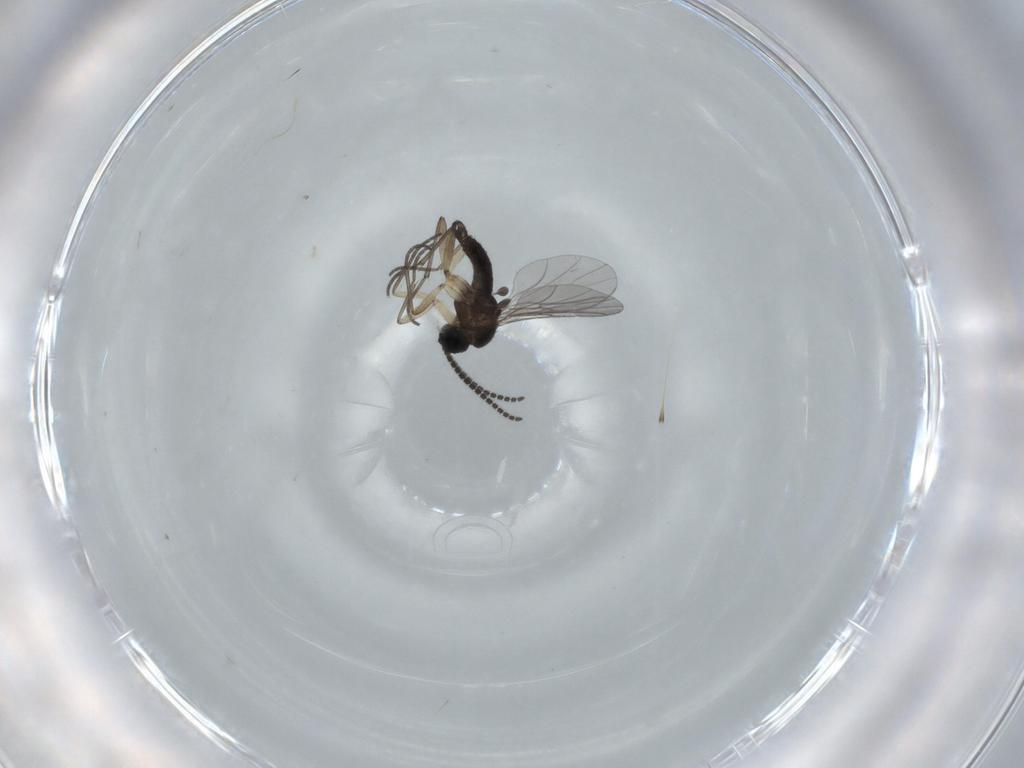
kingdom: Animalia
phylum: Arthropoda
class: Insecta
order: Diptera
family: Sciaridae
